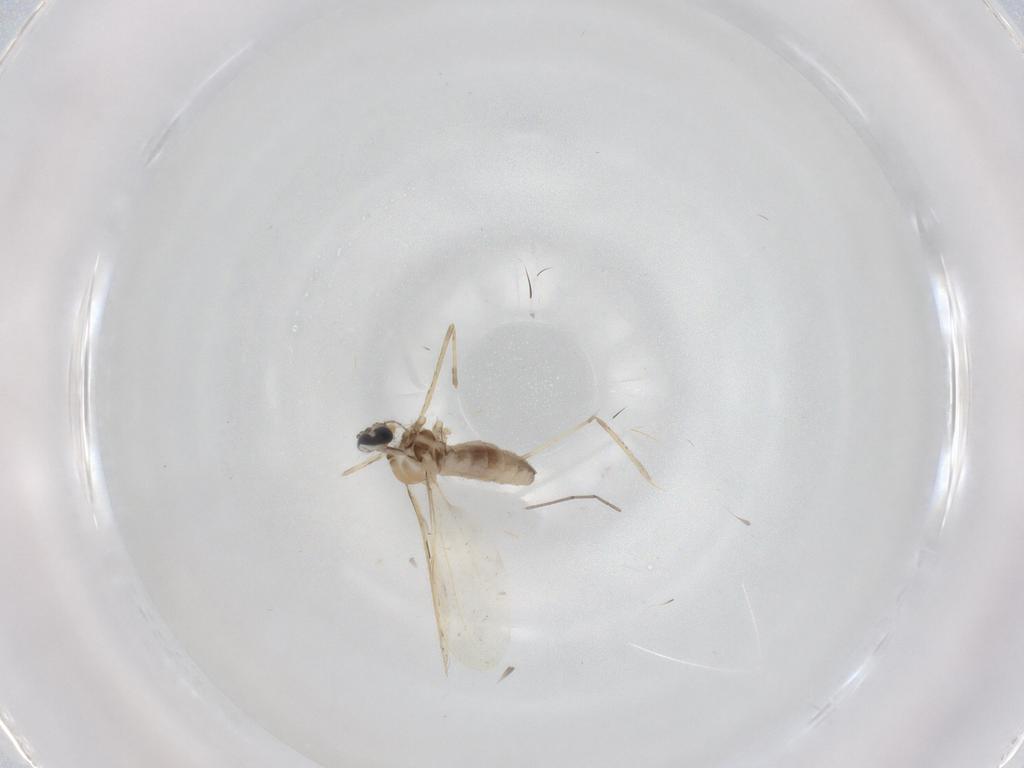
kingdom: Animalia
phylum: Arthropoda
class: Insecta
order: Diptera
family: Cecidomyiidae
